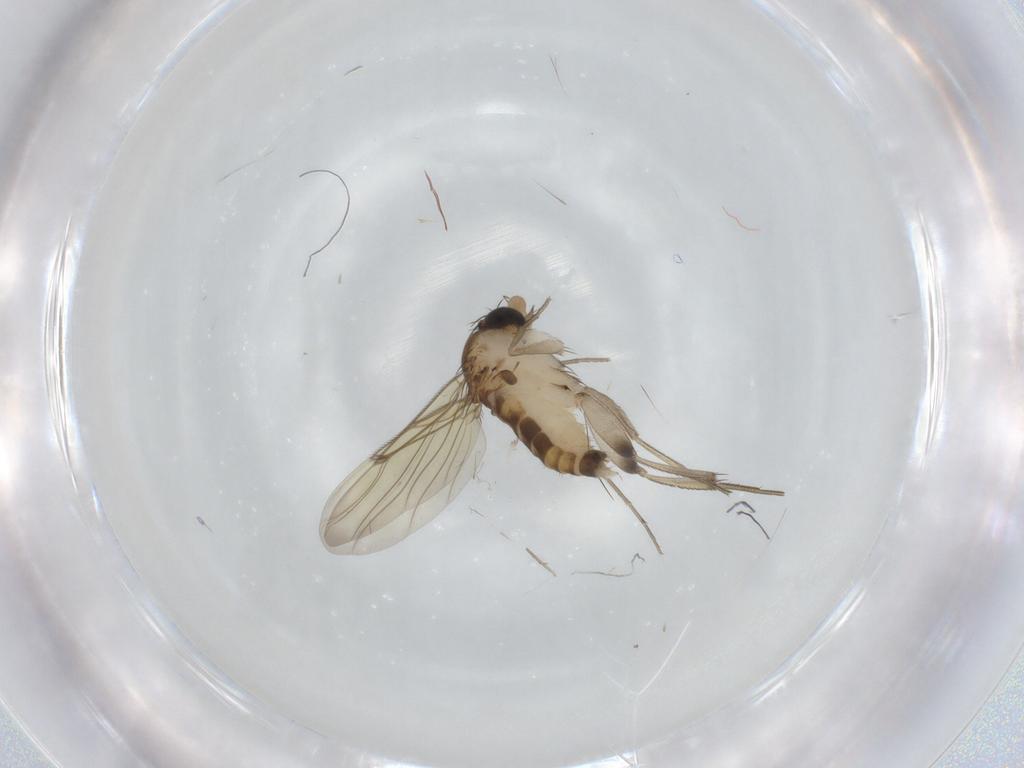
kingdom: Animalia
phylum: Arthropoda
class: Insecta
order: Diptera
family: Phoridae
